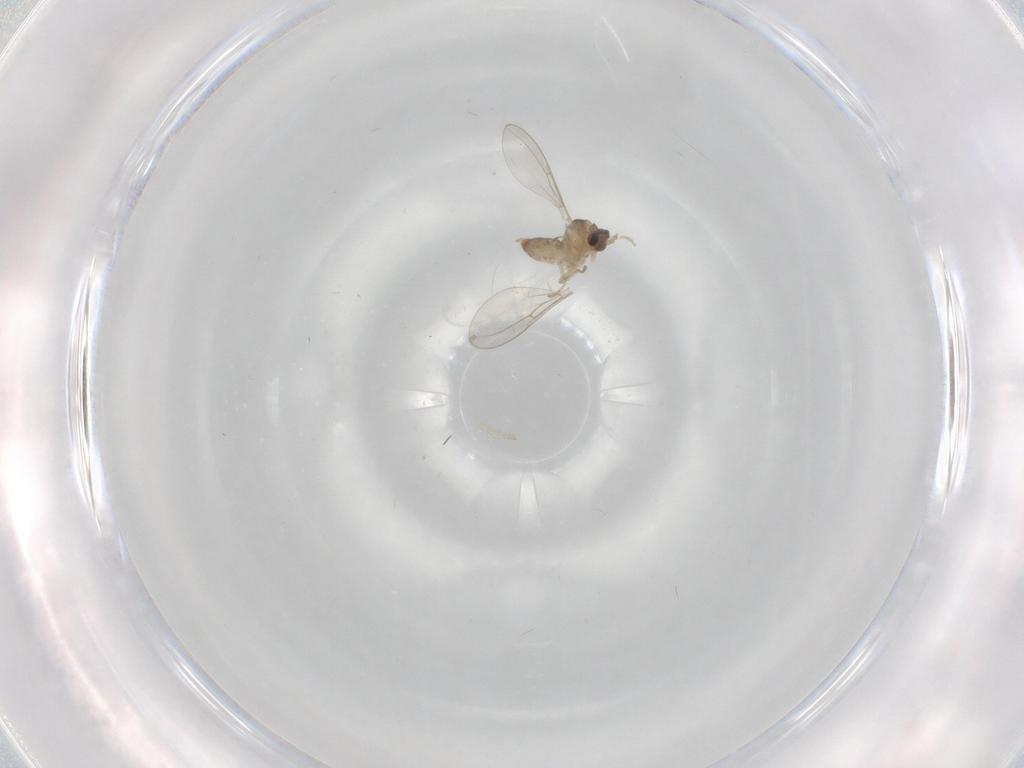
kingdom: Animalia
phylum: Arthropoda
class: Insecta
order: Diptera
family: Cecidomyiidae
